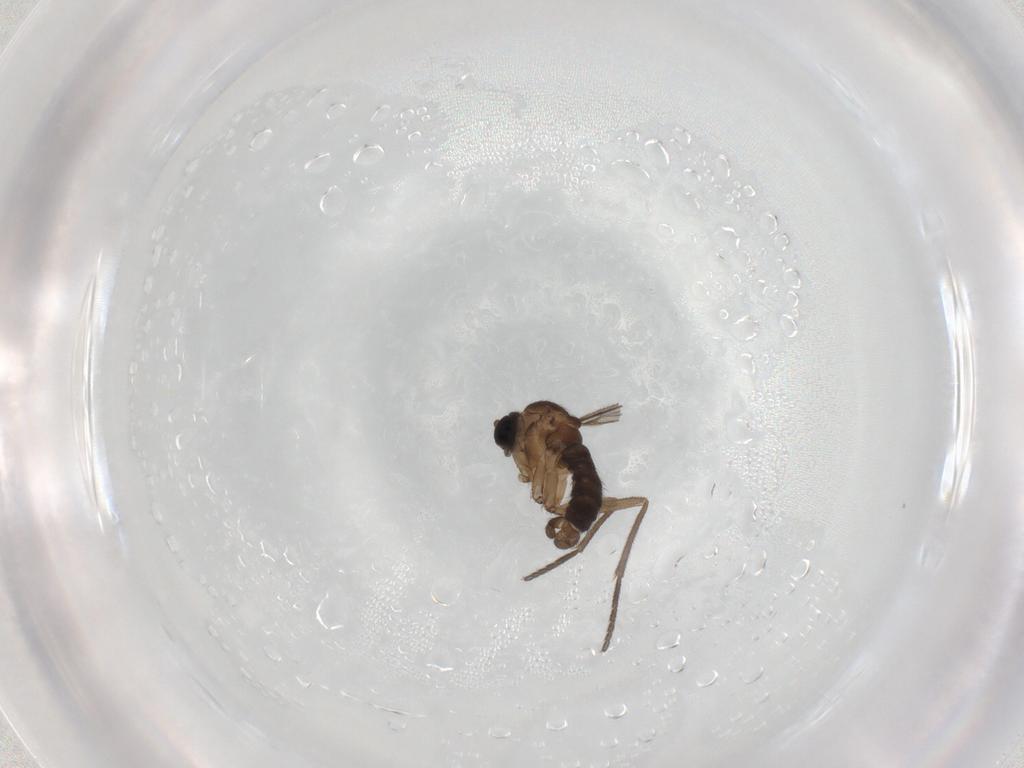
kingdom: Animalia
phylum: Arthropoda
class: Insecta
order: Diptera
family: Sciaridae
